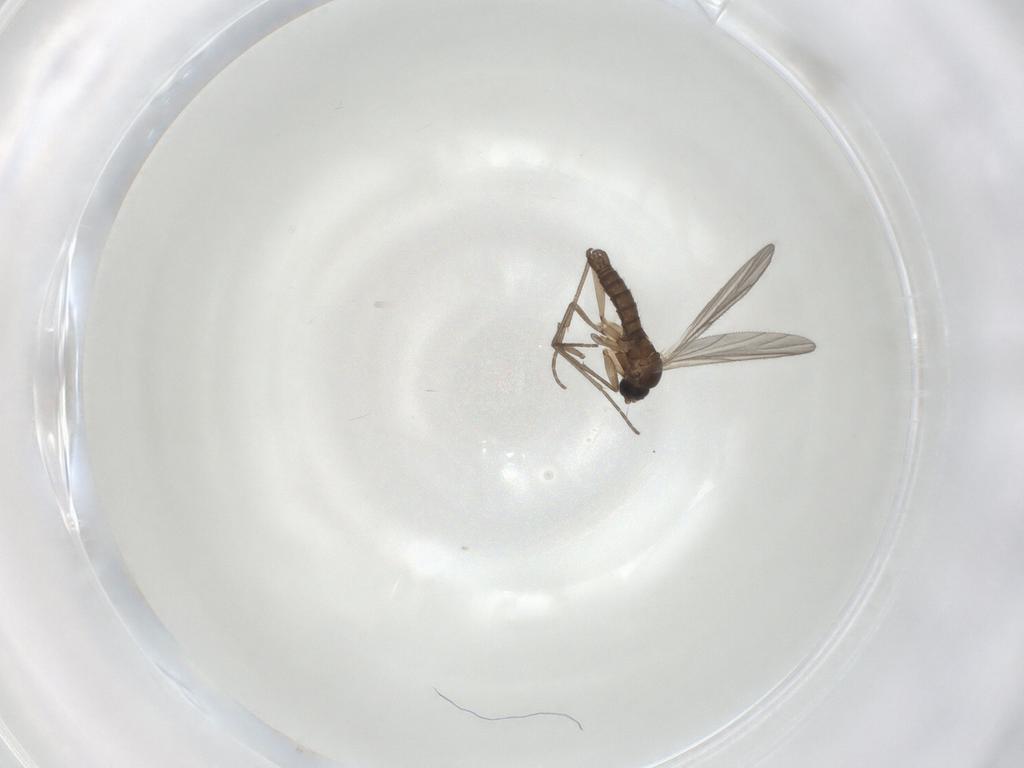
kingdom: Animalia
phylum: Arthropoda
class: Insecta
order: Diptera
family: Sciaridae
